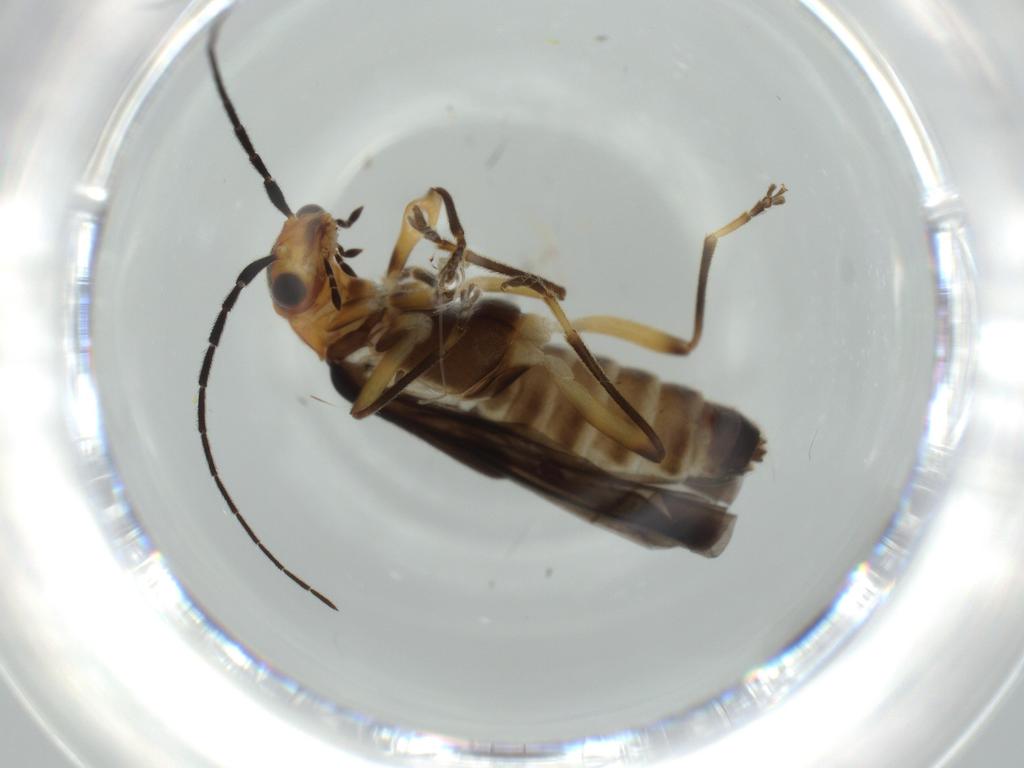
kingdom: Animalia
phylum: Arthropoda
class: Insecta
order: Coleoptera
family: Cantharidae
